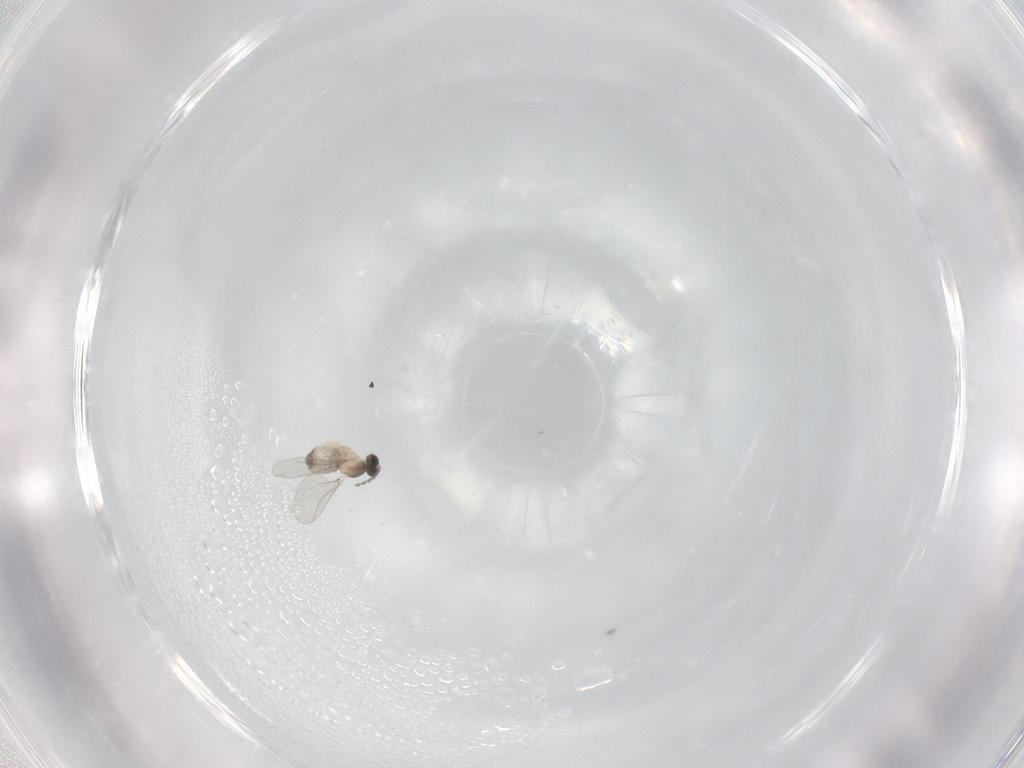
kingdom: Animalia
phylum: Arthropoda
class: Insecta
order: Diptera
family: Cecidomyiidae
